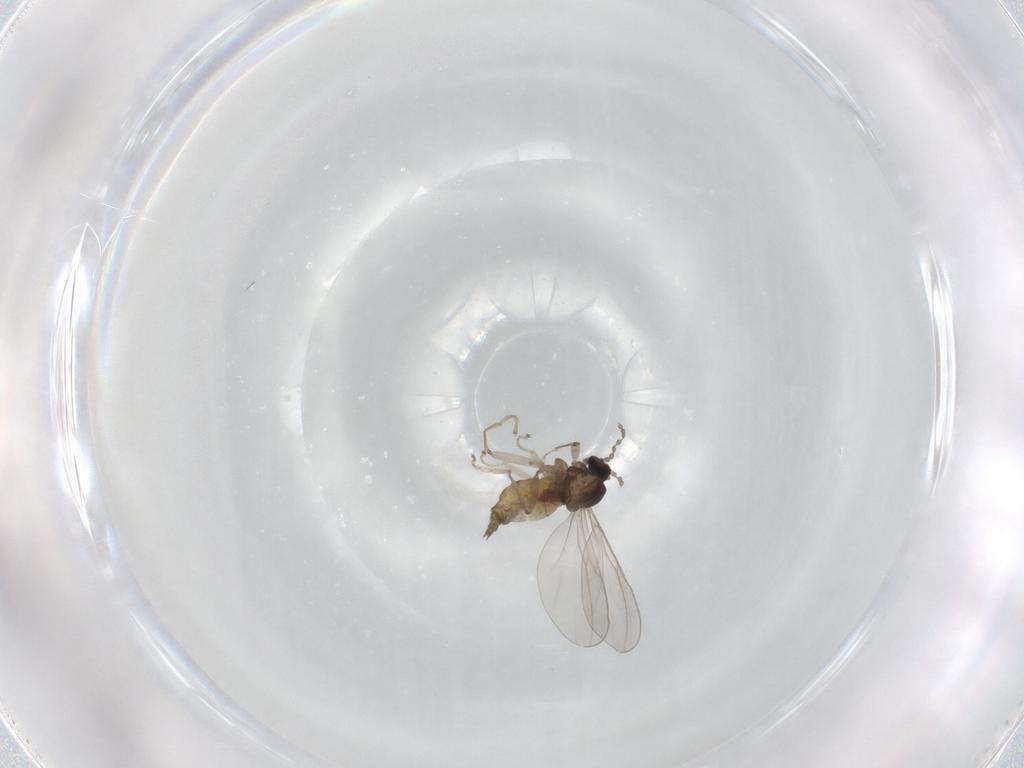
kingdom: Animalia
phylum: Arthropoda
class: Insecta
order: Diptera
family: Cecidomyiidae
